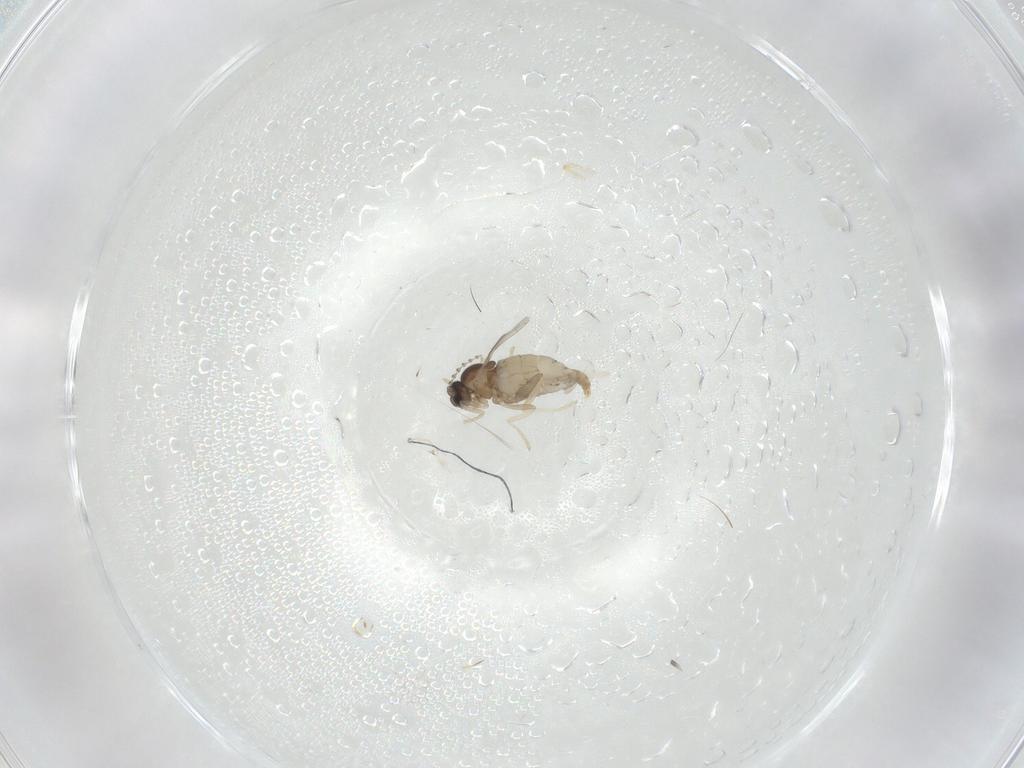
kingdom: Animalia
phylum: Arthropoda
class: Insecta
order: Diptera
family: Cecidomyiidae
